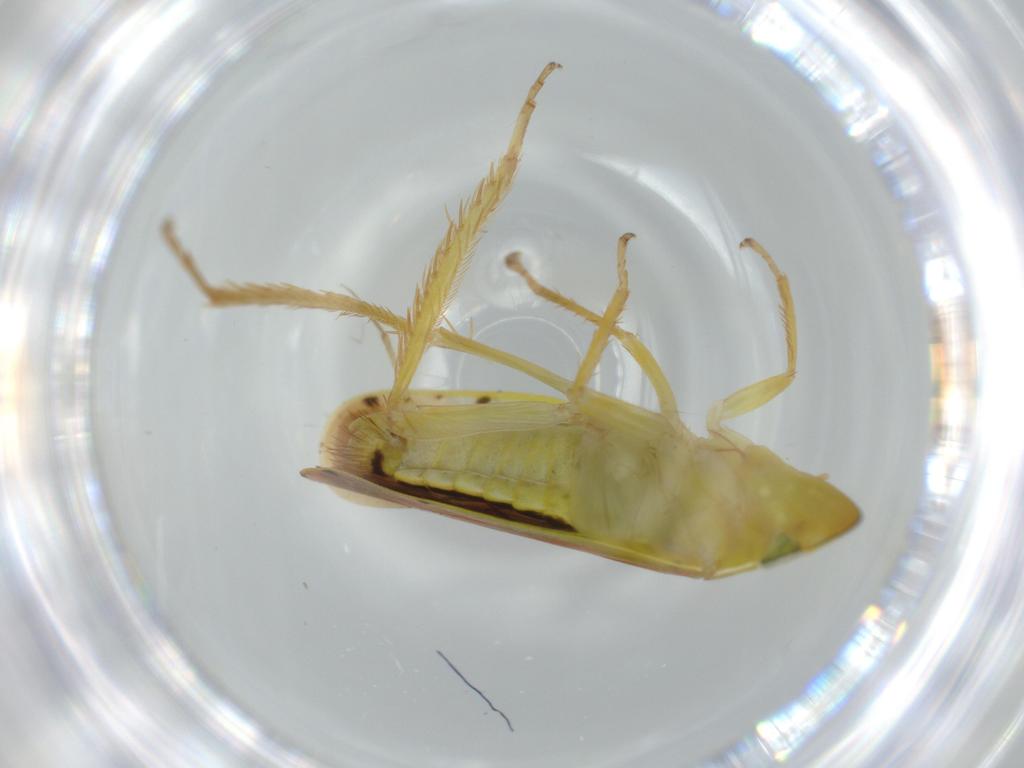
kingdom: Animalia
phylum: Arthropoda
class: Insecta
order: Hemiptera
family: Cicadellidae
